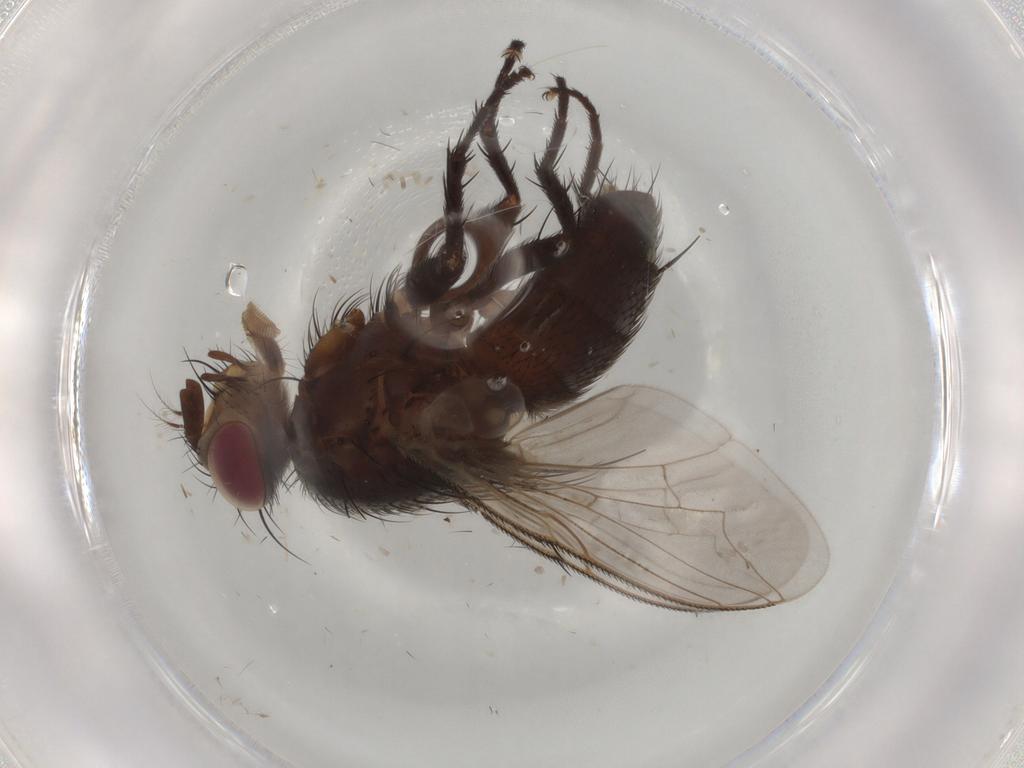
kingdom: Animalia
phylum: Arthropoda
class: Insecta
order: Diptera
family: Sarcophagidae
